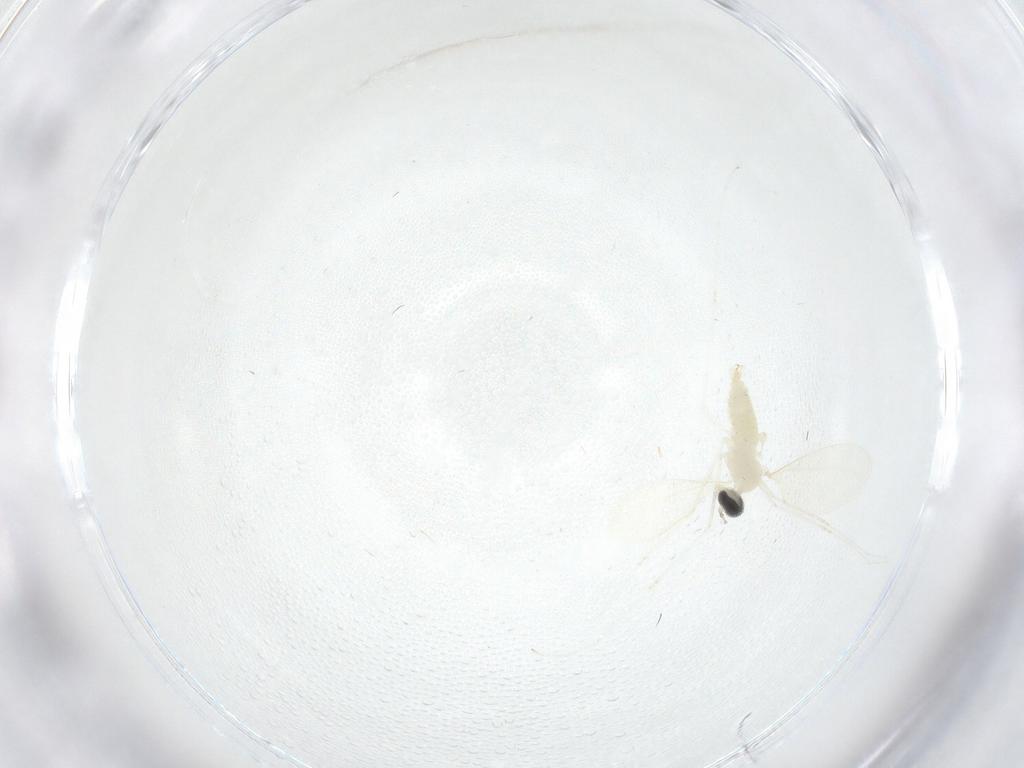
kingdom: Animalia
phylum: Arthropoda
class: Insecta
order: Diptera
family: Cecidomyiidae
